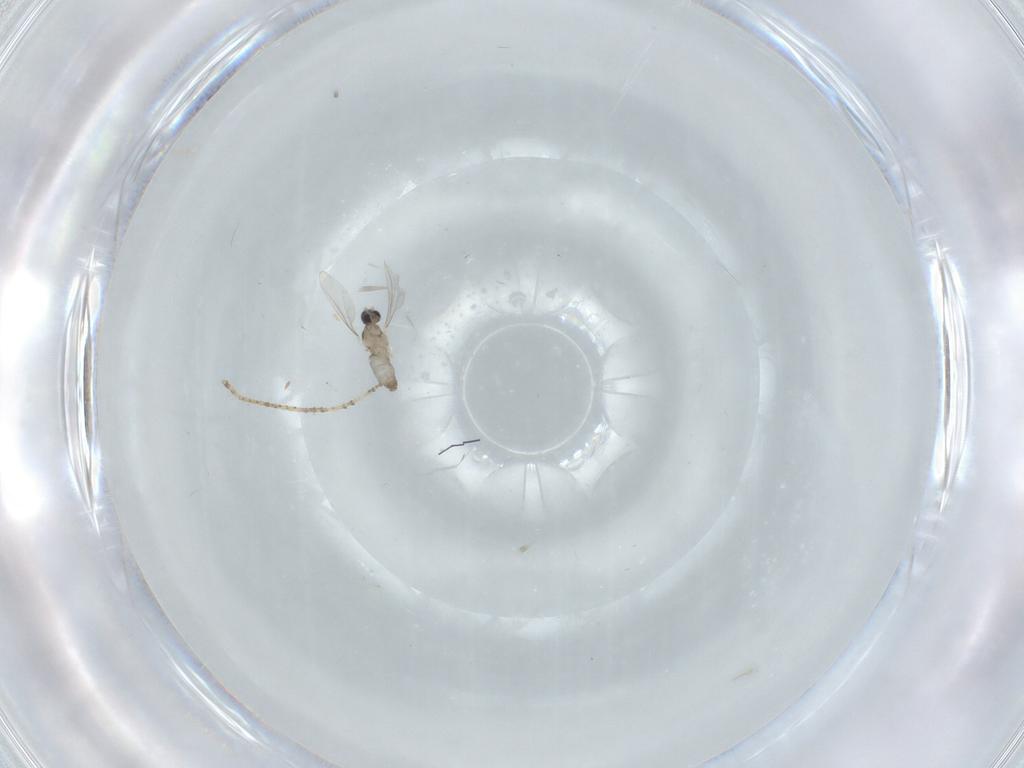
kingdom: Animalia
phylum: Arthropoda
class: Insecta
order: Diptera
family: Cecidomyiidae
